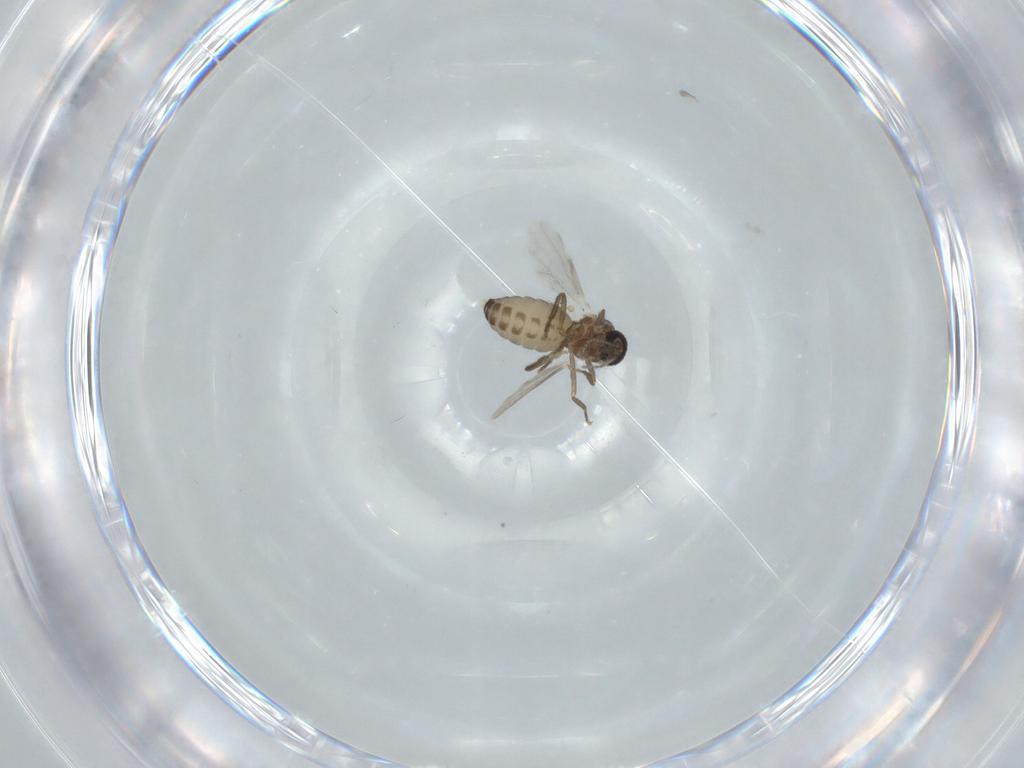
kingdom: Animalia
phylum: Arthropoda
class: Insecta
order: Diptera
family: Ceratopogonidae
